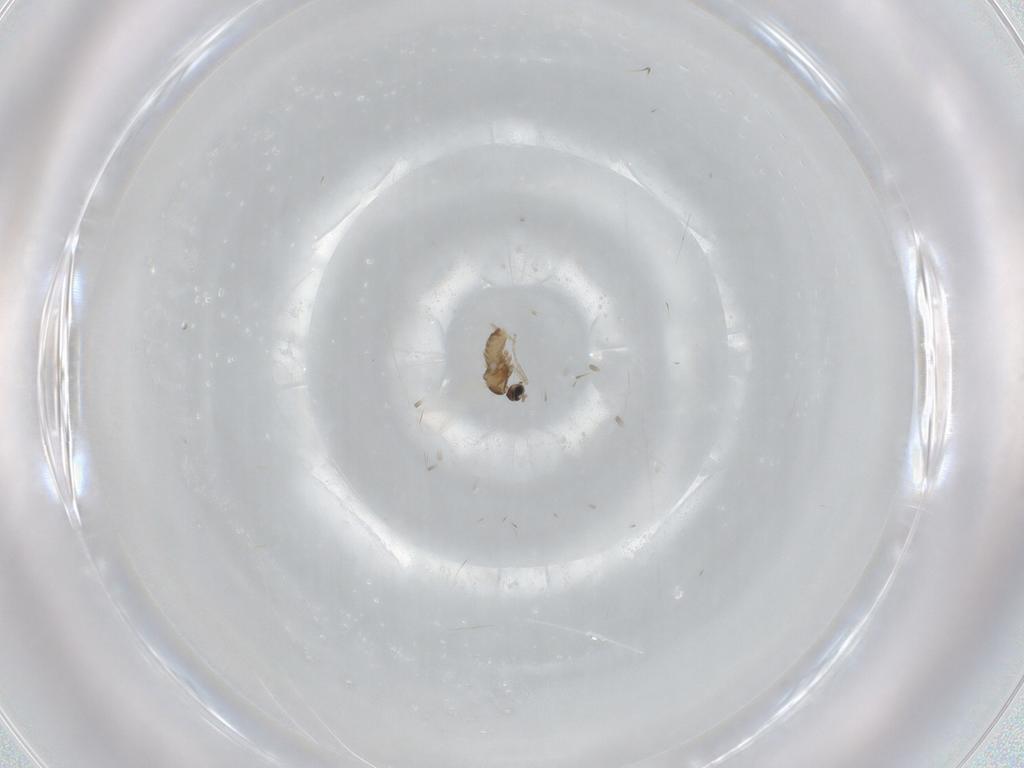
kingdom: Animalia
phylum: Arthropoda
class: Insecta
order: Diptera
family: Cecidomyiidae
